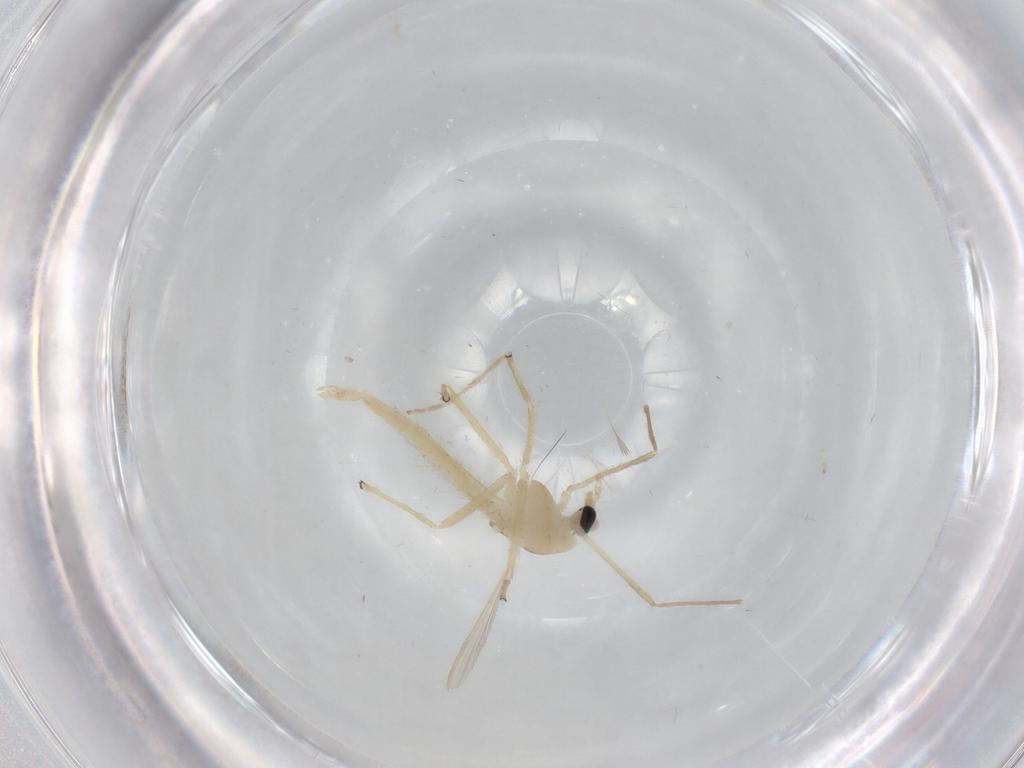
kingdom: Animalia
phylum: Arthropoda
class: Insecta
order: Diptera
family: Chironomidae
